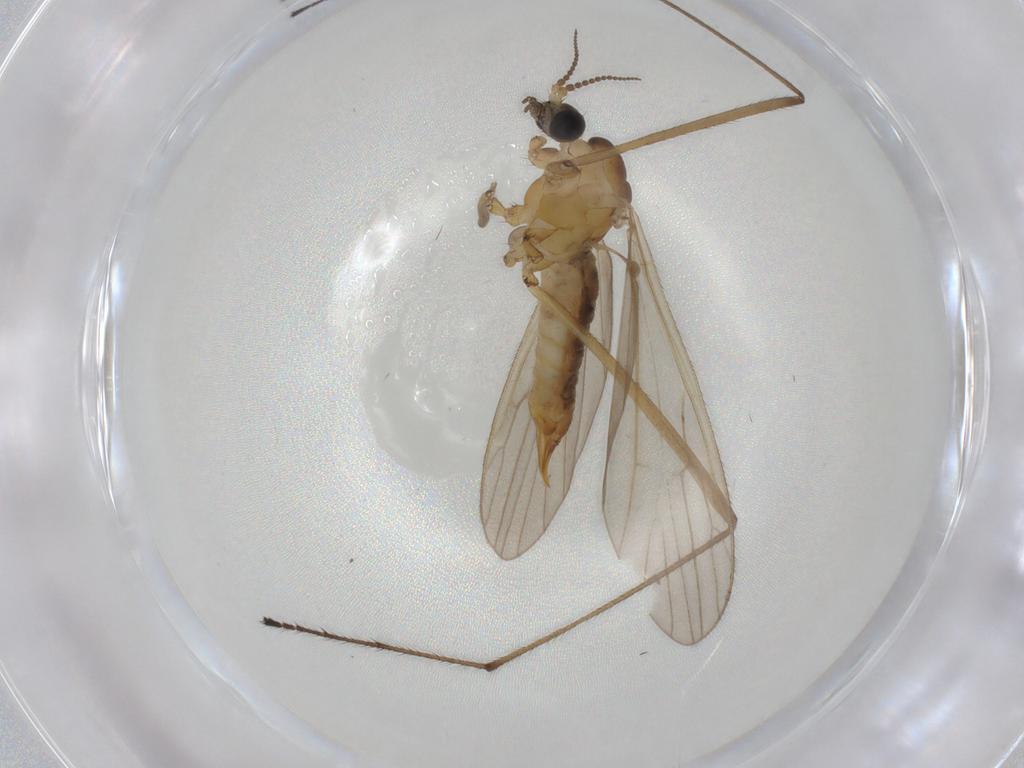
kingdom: Animalia
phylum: Arthropoda
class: Insecta
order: Diptera
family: Limoniidae
